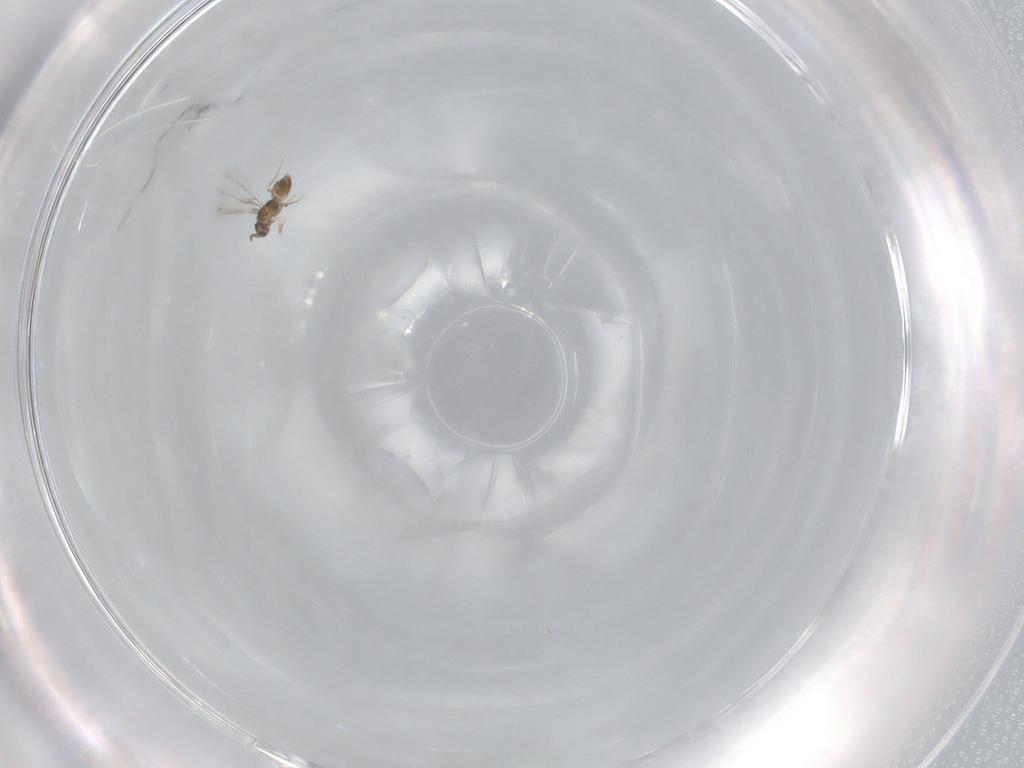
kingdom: Animalia
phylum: Arthropoda
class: Insecta
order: Hymenoptera
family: Mymaridae
